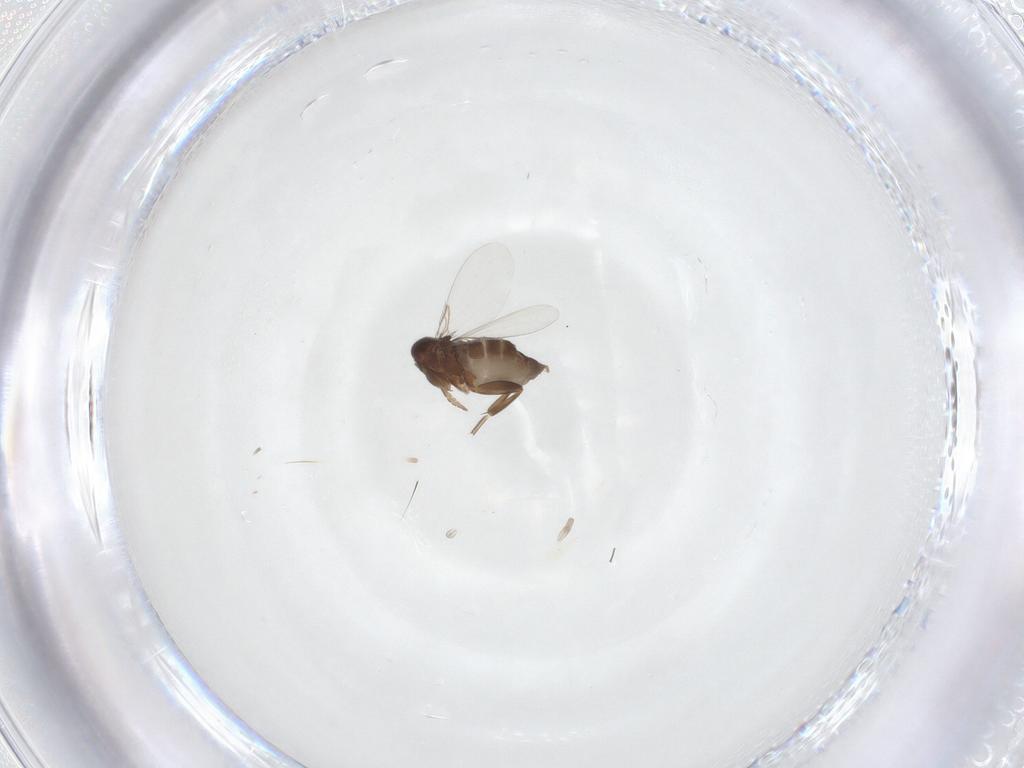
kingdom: Animalia
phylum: Arthropoda
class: Insecta
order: Diptera
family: Phoridae
